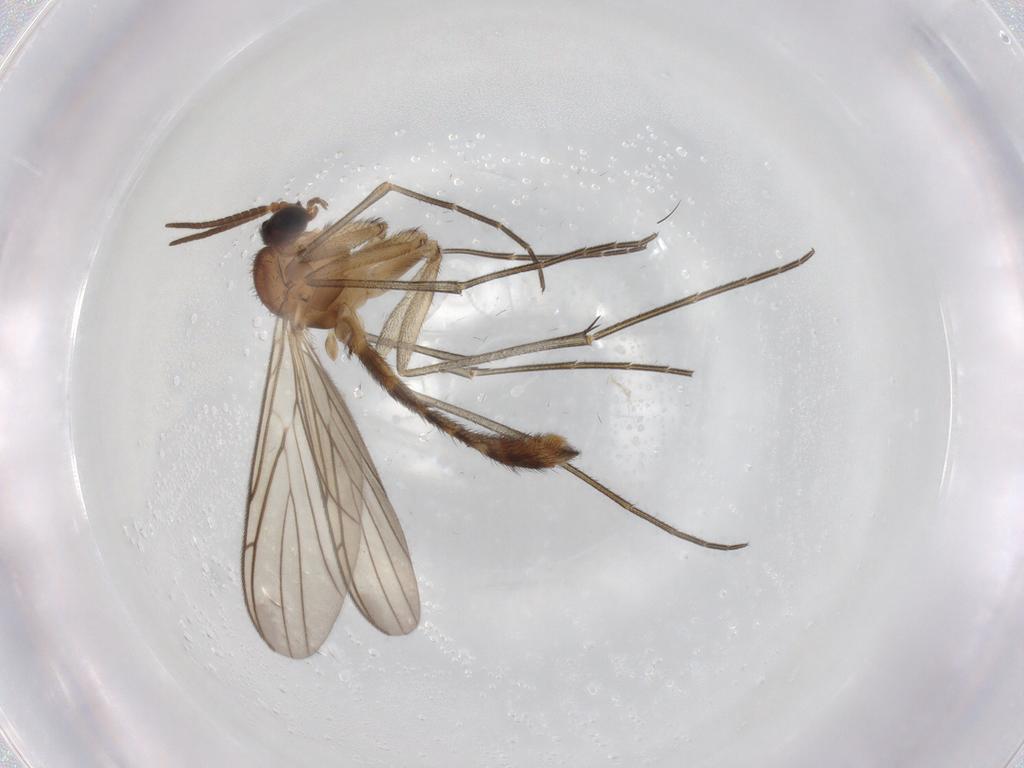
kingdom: Animalia
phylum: Arthropoda
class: Insecta
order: Diptera
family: Keroplatidae
